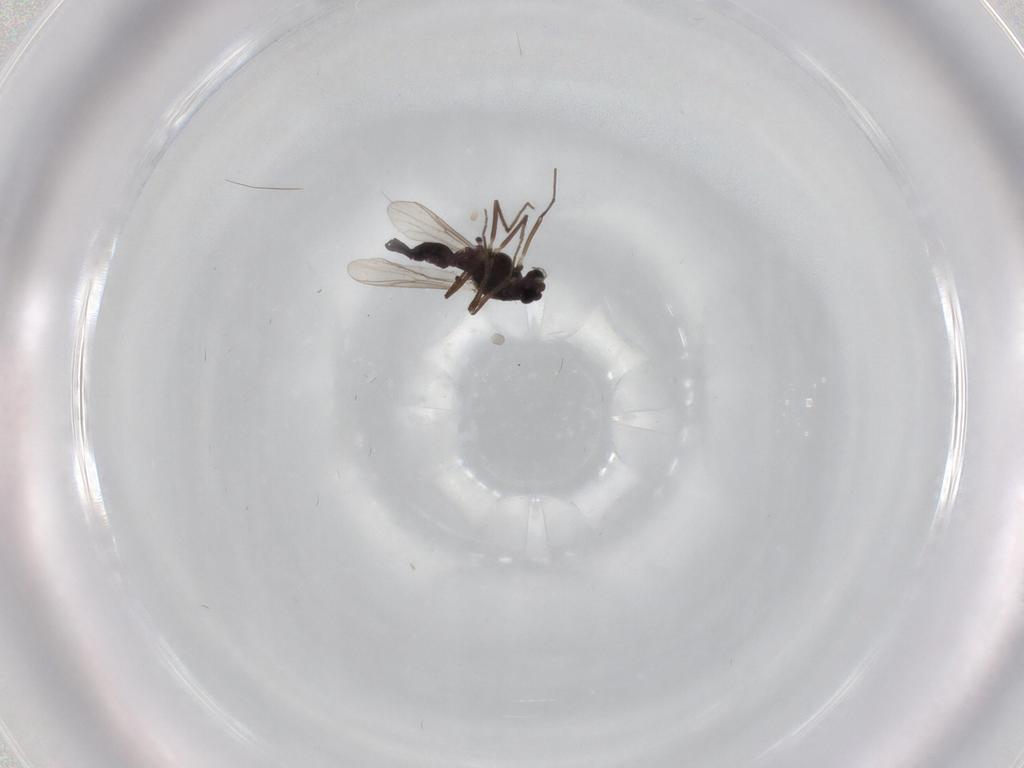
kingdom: Animalia
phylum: Arthropoda
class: Insecta
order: Diptera
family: Chironomidae
